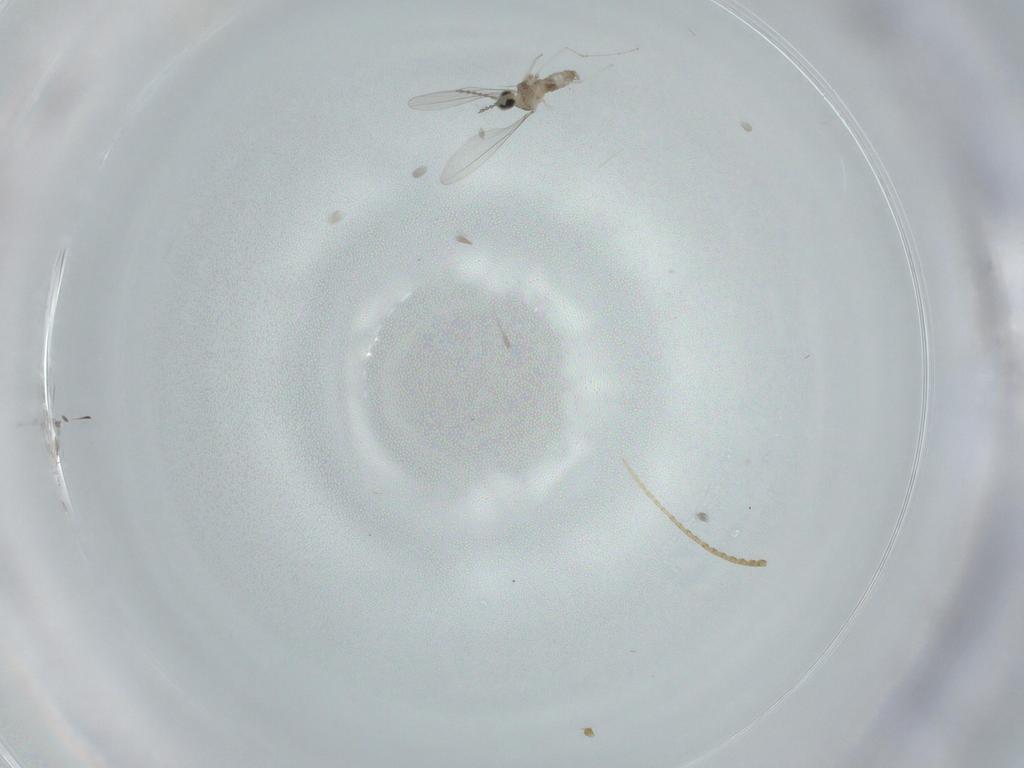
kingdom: Animalia
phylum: Arthropoda
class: Insecta
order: Diptera
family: Cecidomyiidae
